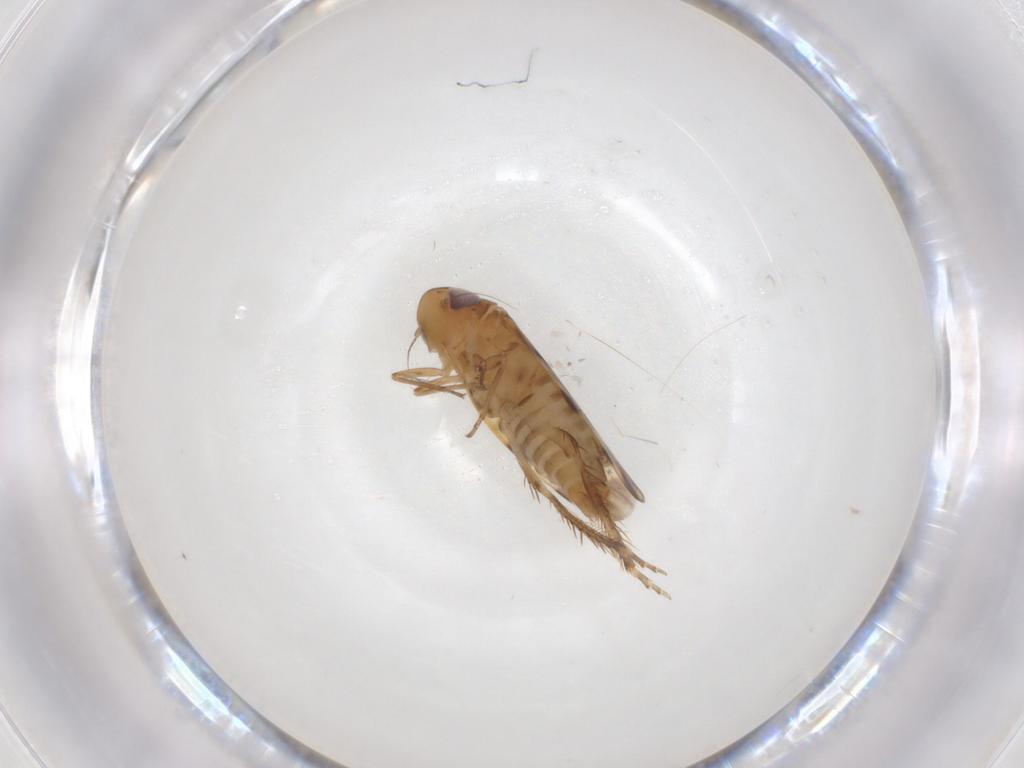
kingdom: Animalia
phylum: Arthropoda
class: Insecta
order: Hemiptera
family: Cicadellidae
